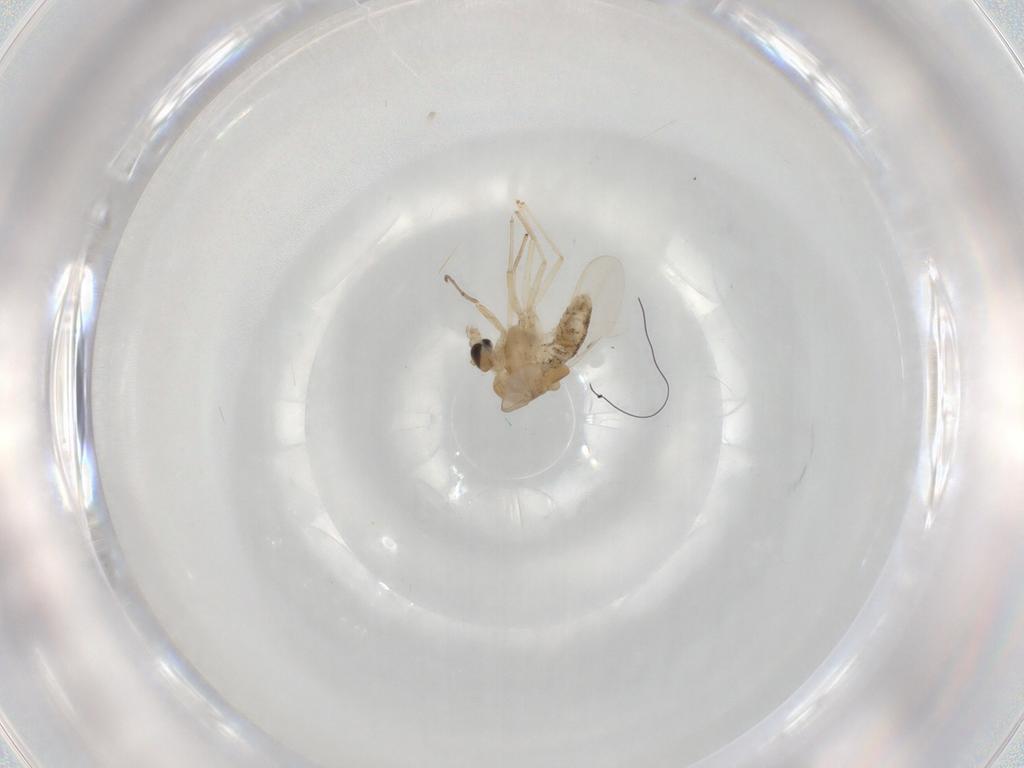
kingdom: Animalia
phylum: Arthropoda
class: Insecta
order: Diptera
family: Chironomidae
